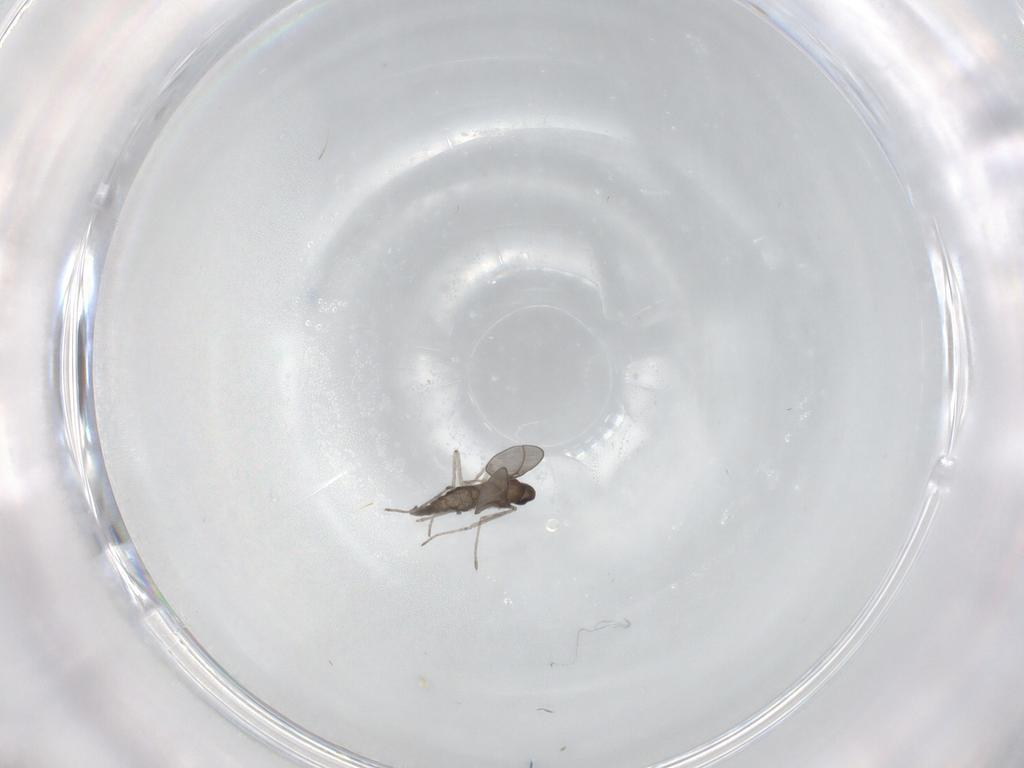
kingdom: Animalia
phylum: Arthropoda
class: Insecta
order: Diptera
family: Cecidomyiidae
